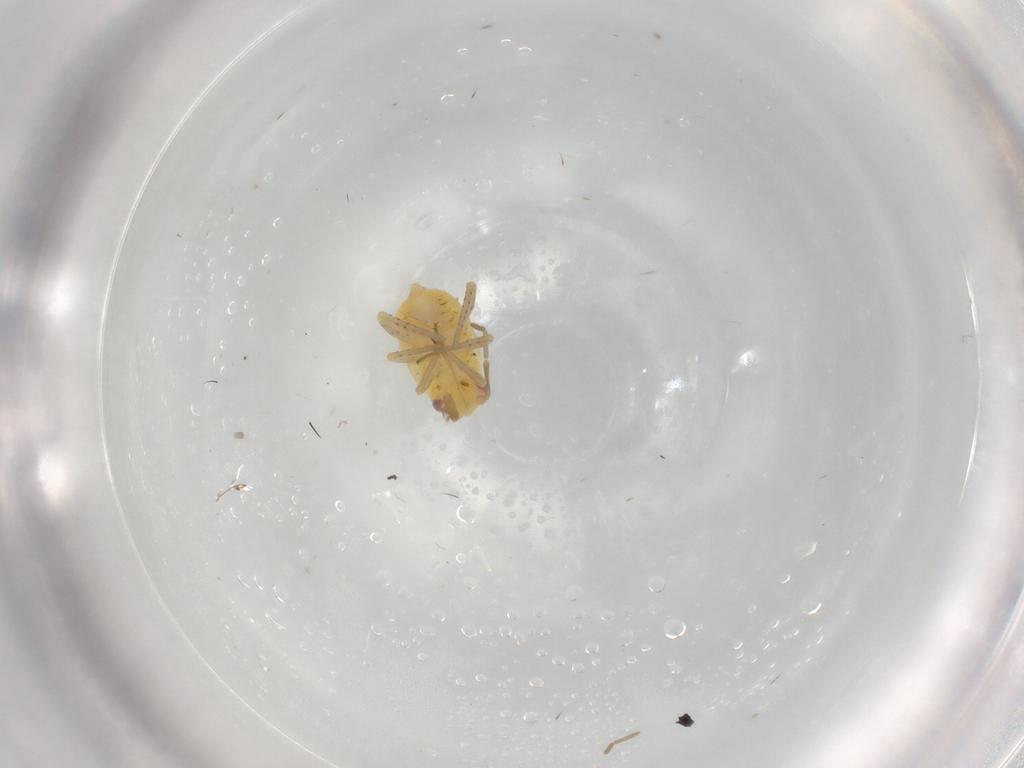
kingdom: Animalia
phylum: Arthropoda
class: Insecta
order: Hemiptera
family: Miridae
